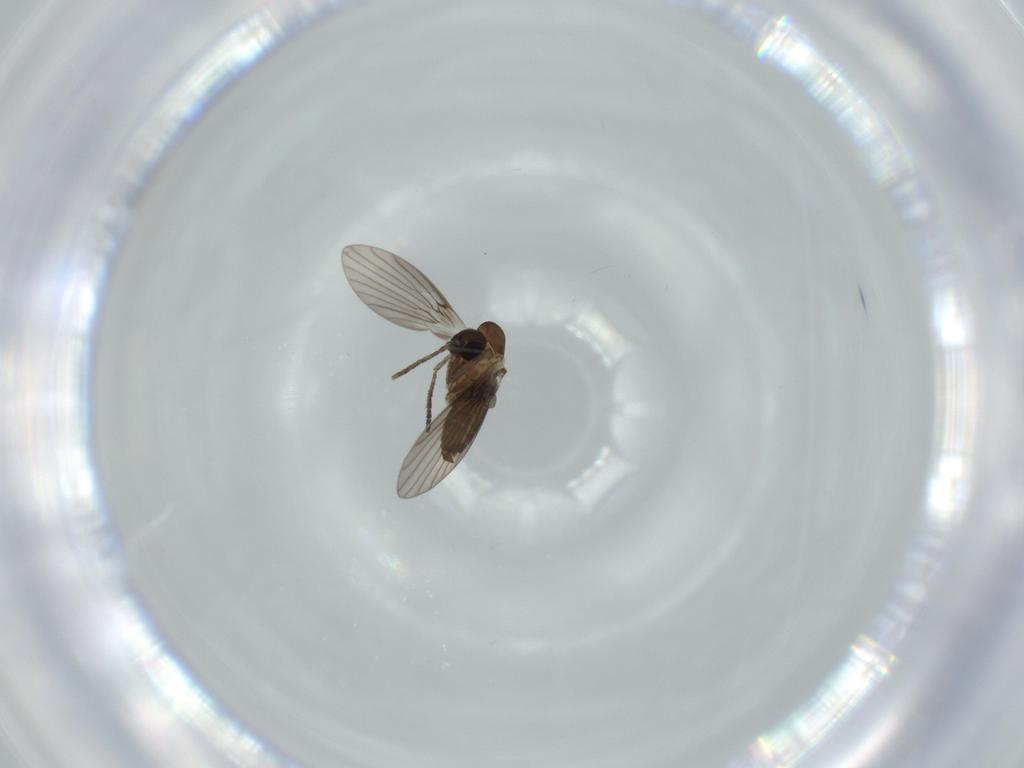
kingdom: Animalia
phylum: Arthropoda
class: Insecta
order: Diptera
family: Psychodidae
